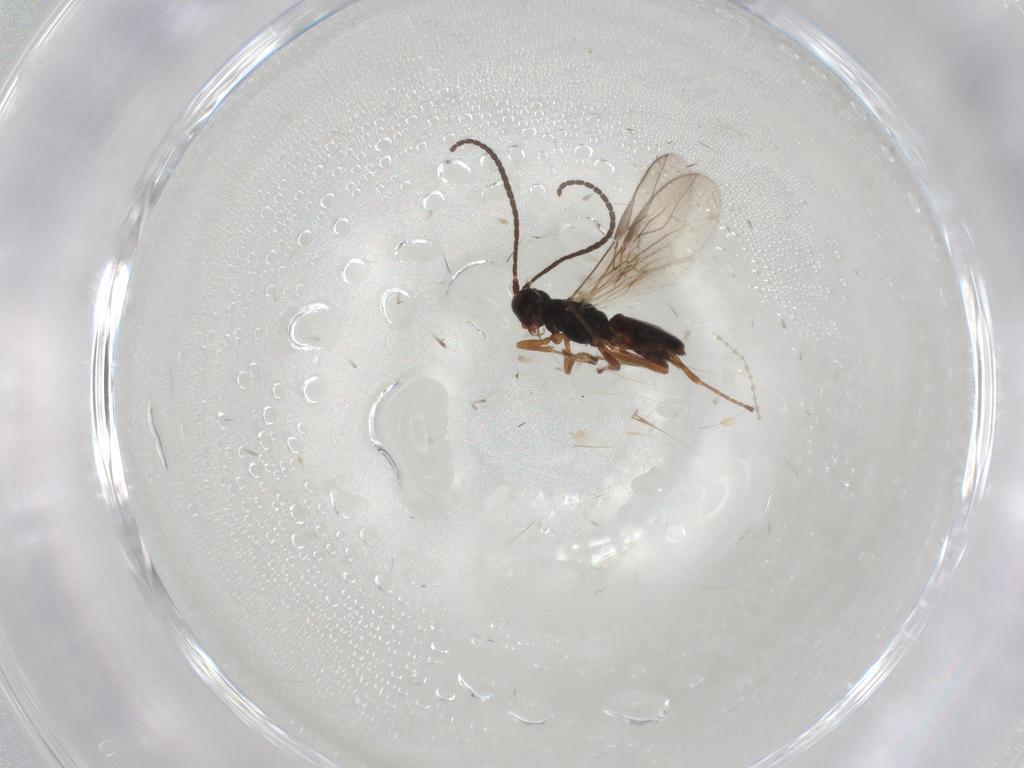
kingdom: Animalia
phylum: Arthropoda
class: Insecta
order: Hymenoptera
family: Braconidae
